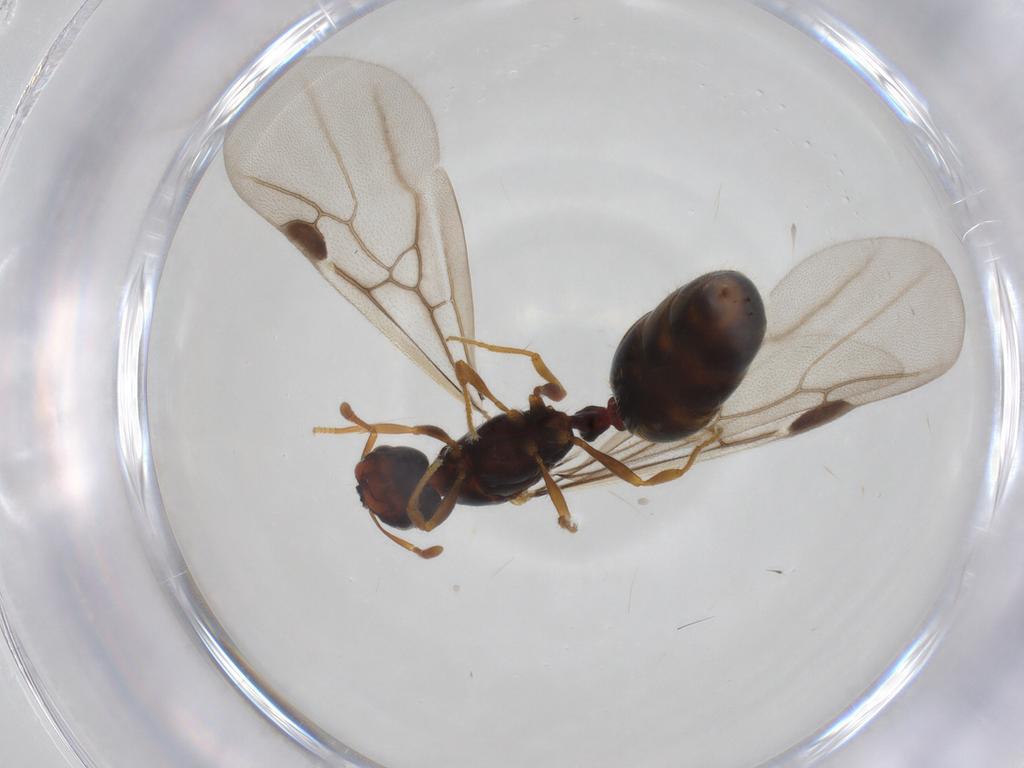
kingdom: Animalia
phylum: Arthropoda
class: Insecta
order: Hymenoptera
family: Formicidae
